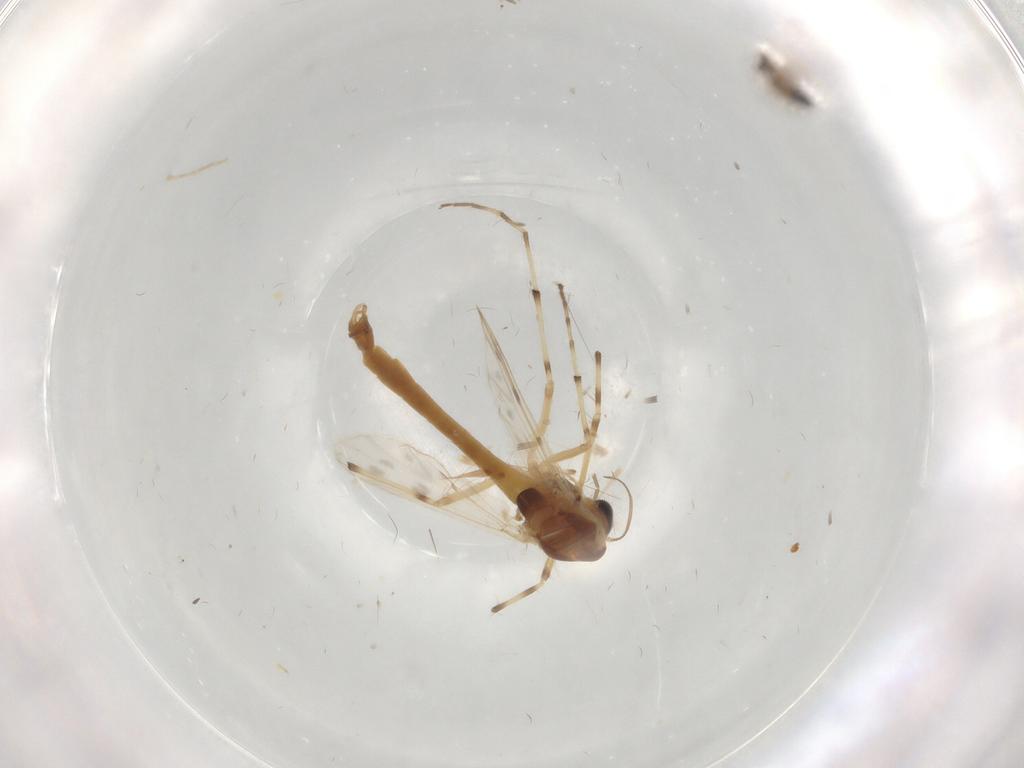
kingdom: Animalia
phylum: Arthropoda
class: Insecta
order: Diptera
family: Chironomidae
